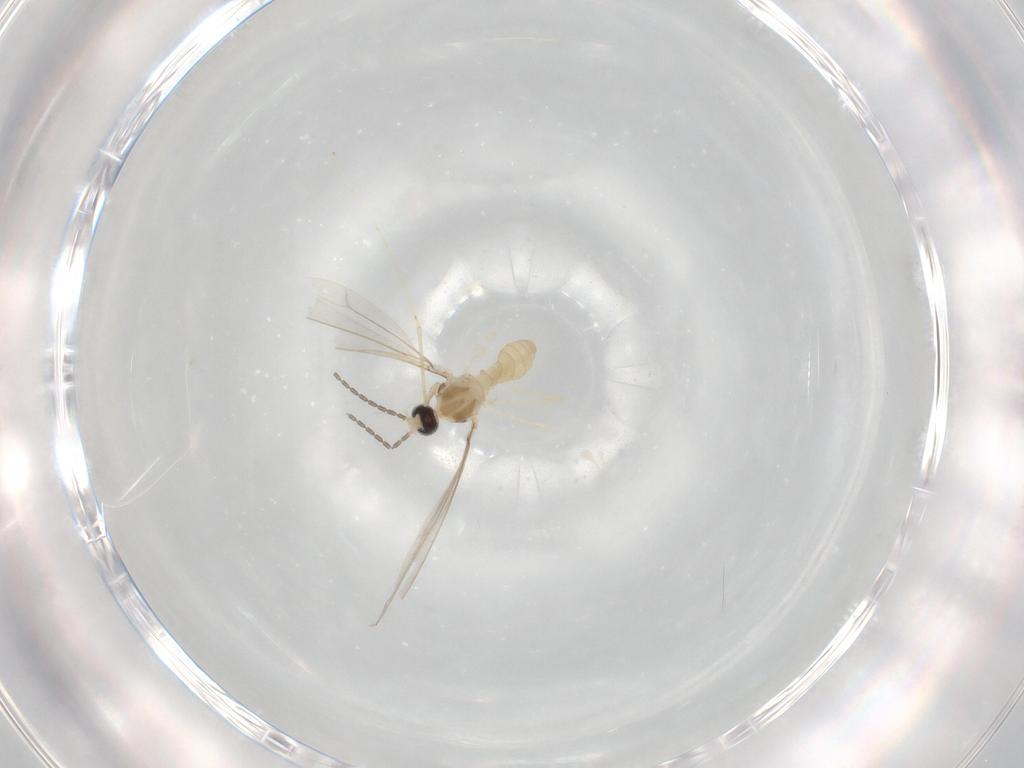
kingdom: Animalia
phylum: Arthropoda
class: Insecta
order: Diptera
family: Cecidomyiidae
